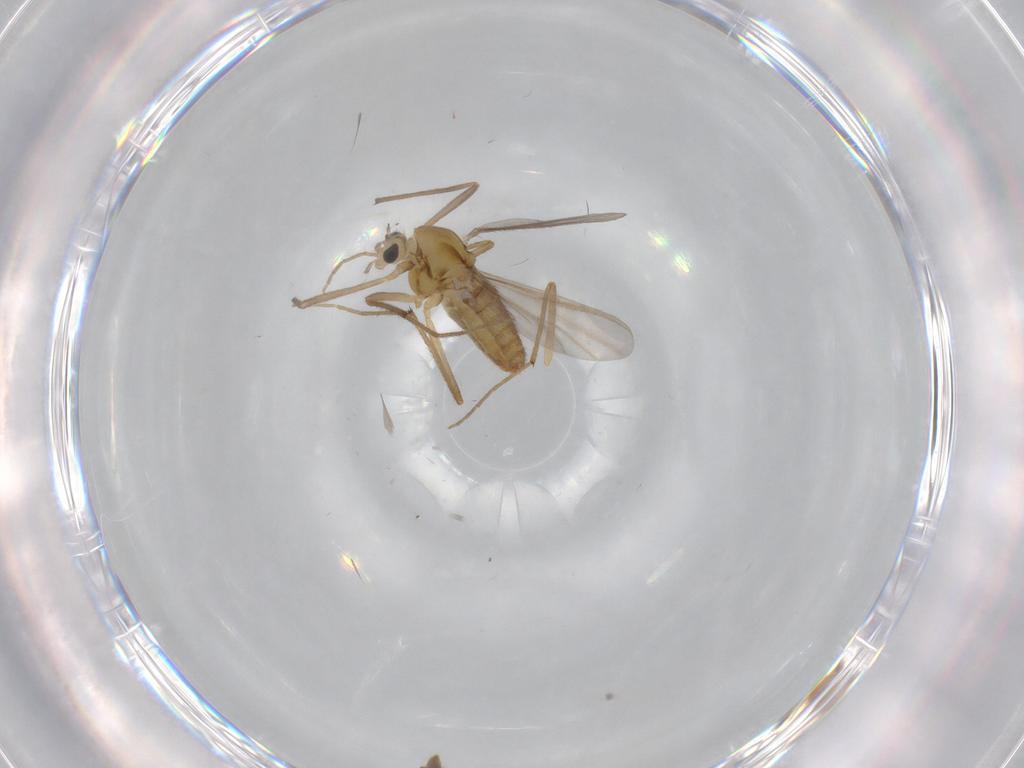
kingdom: Animalia
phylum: Arthropoda
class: Insecta
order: Diptera
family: Chironomidae
